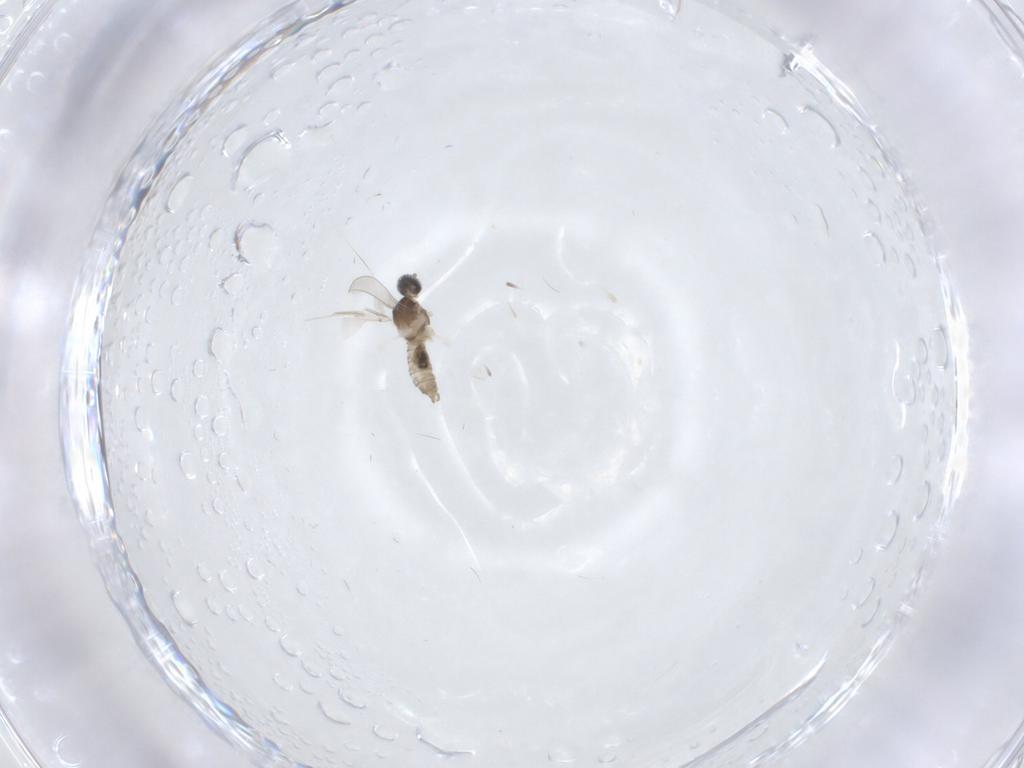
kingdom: Animalia
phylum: Arthropoda
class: Insecta
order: Diptera
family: Cecidomyiidae
